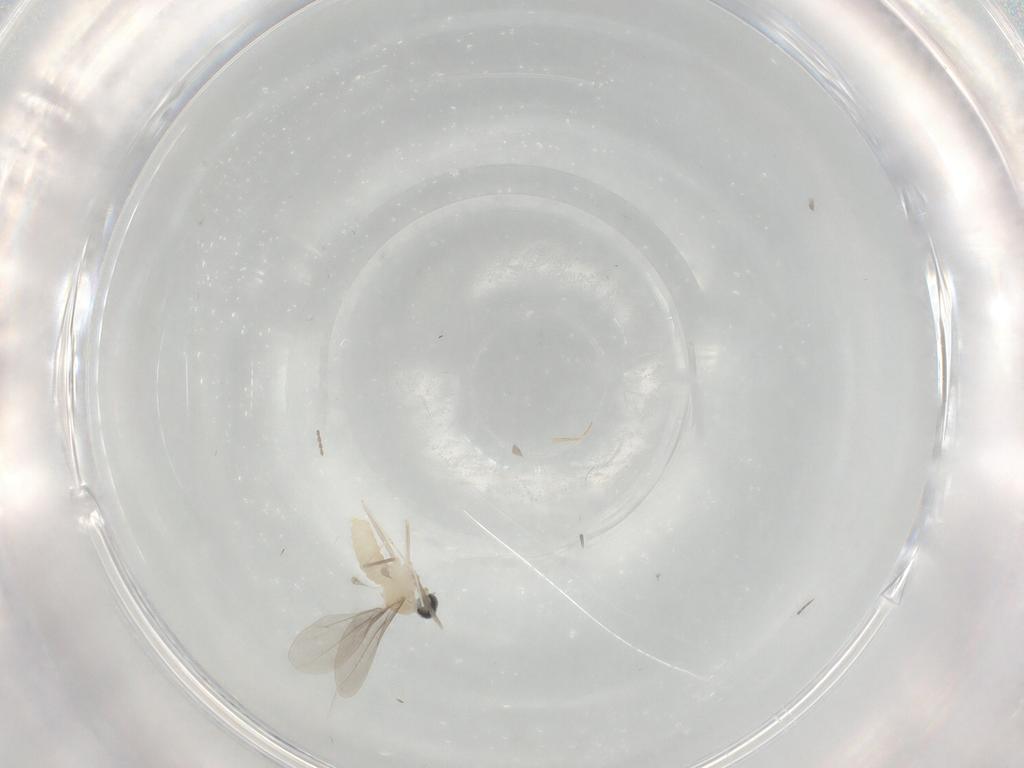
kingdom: Animalia
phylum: Arthropoda
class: Insecta
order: Diptera
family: Cecidomyiidae
